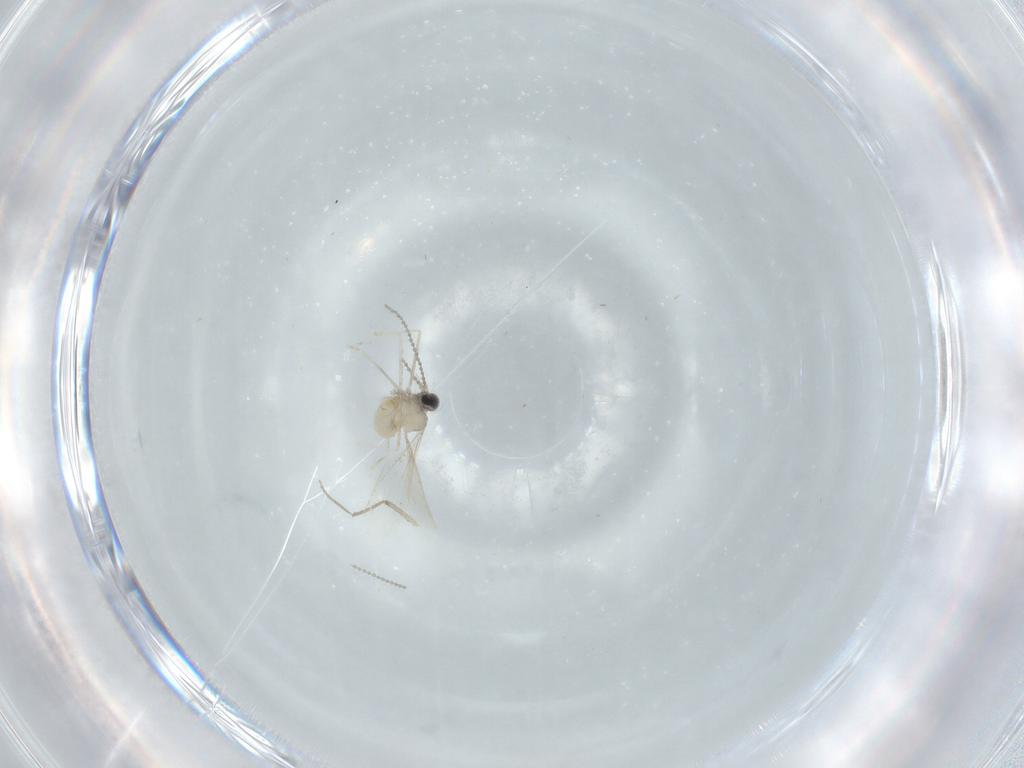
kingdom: Animalia
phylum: Arthropoda
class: Insecta
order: Diptera
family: Cecidomyiidae
